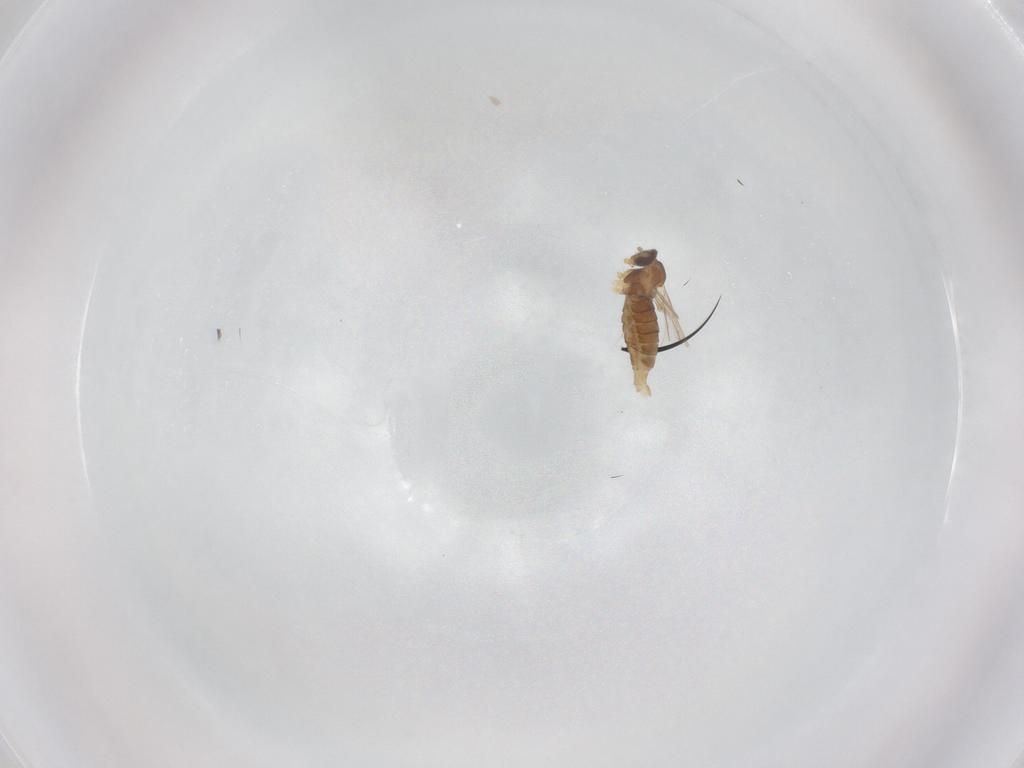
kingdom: Animalia
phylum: Arthropoda
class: Insecta
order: Diptera
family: Cecidomyiidae
